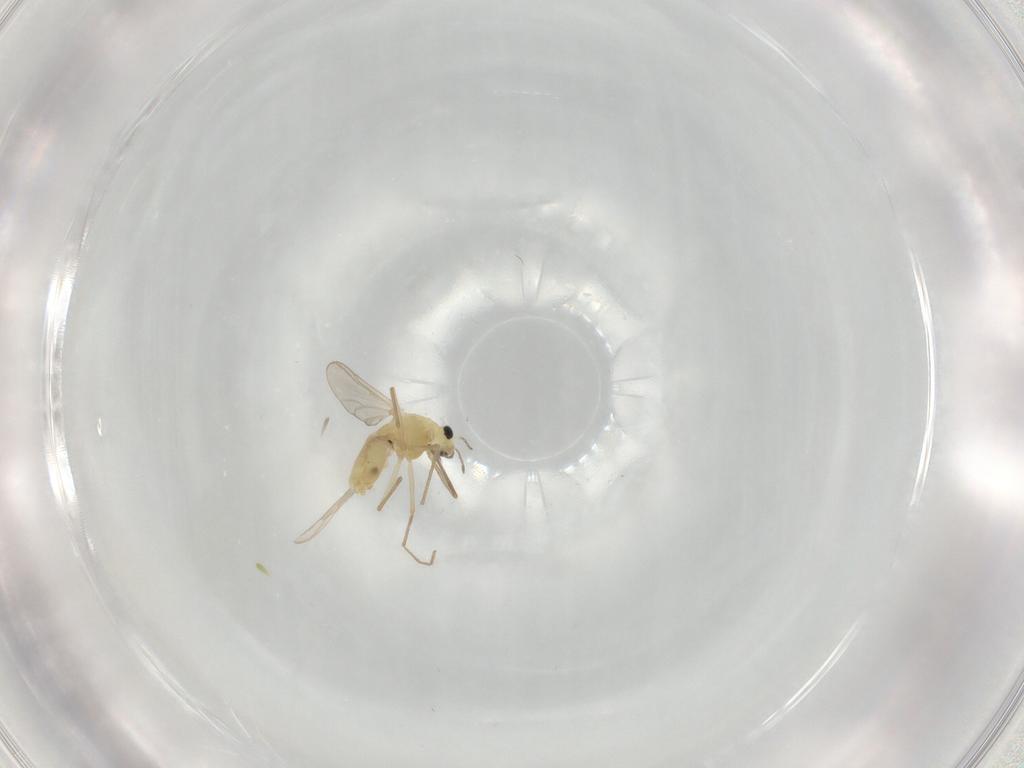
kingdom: Animalia
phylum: Arthropoda
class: Insecta
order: Diptera
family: Chironomidae
